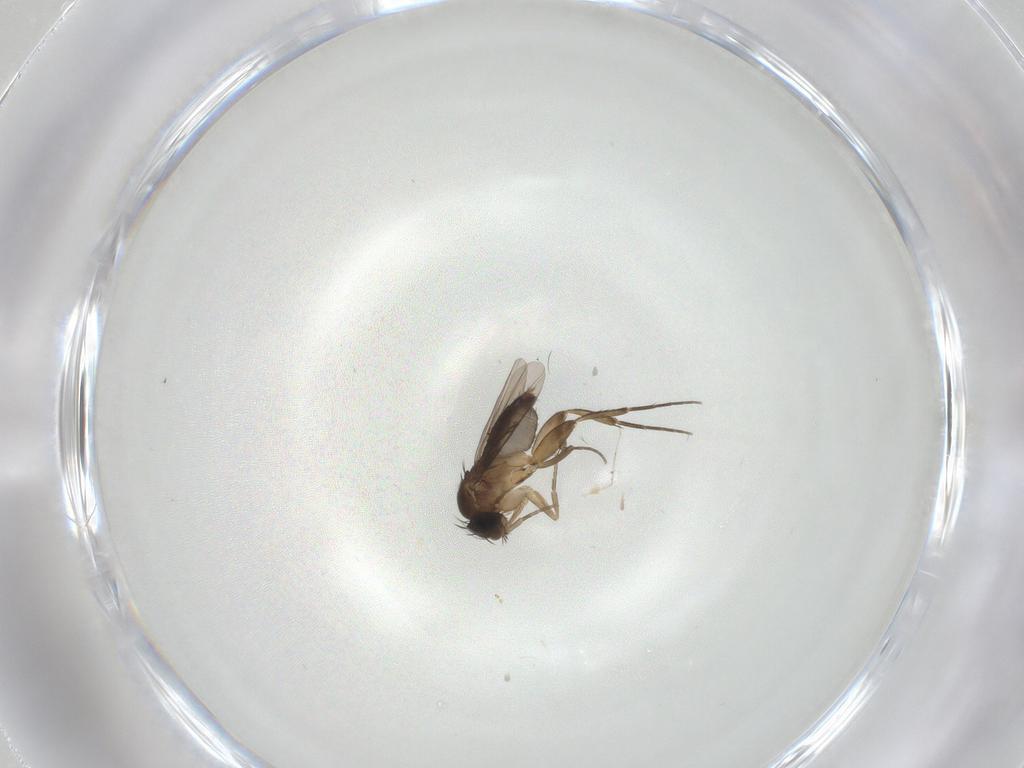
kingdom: Animalia
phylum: Arthropoda
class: Insecta
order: Diptera
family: Phoridae
